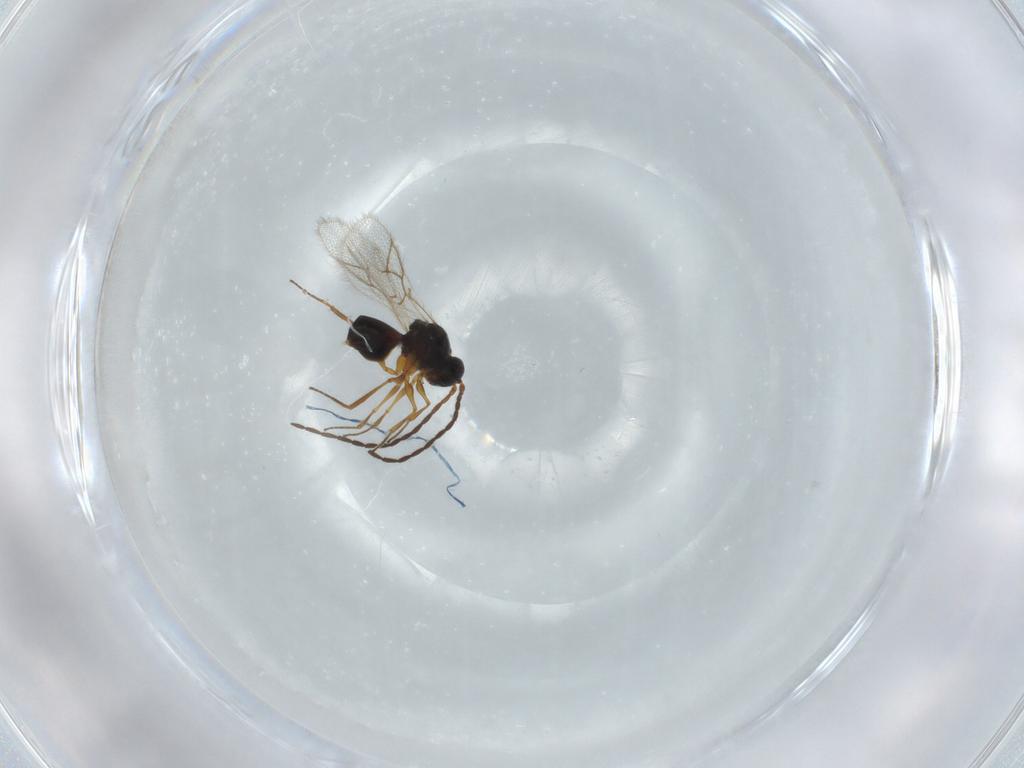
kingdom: Animalia
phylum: Arthropoda
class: Insecta
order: Hymenoptera
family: Figitidae
